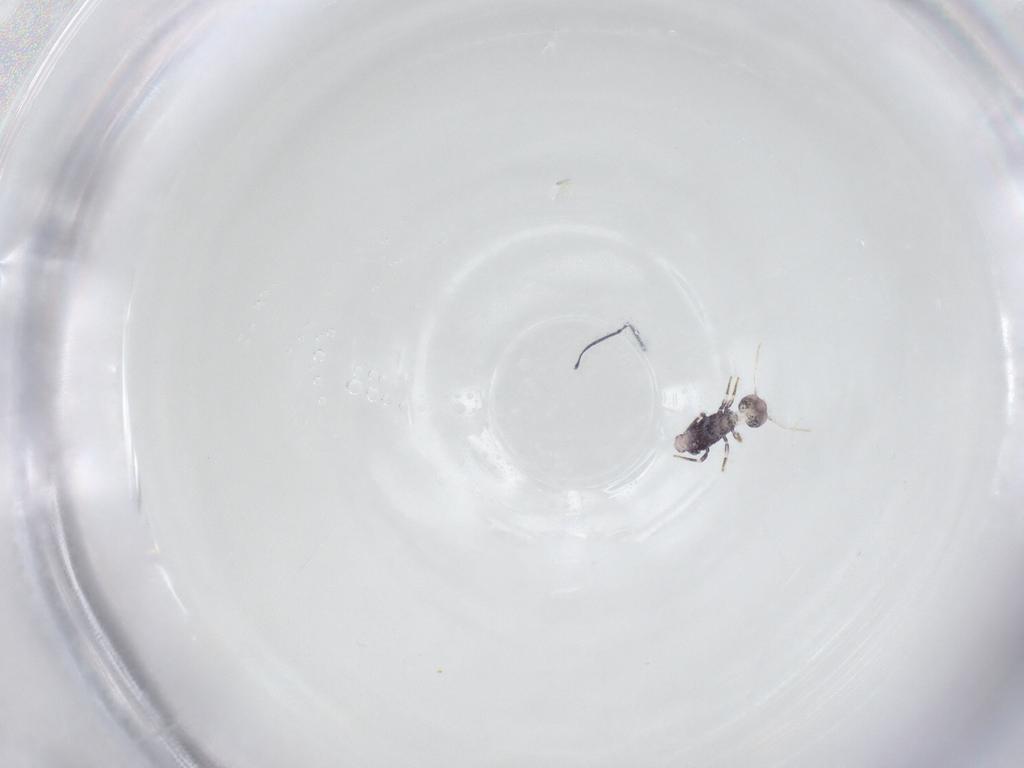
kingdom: Animalia
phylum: Arthropoda
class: Collembola
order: Symphypleona
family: Katiannidae
